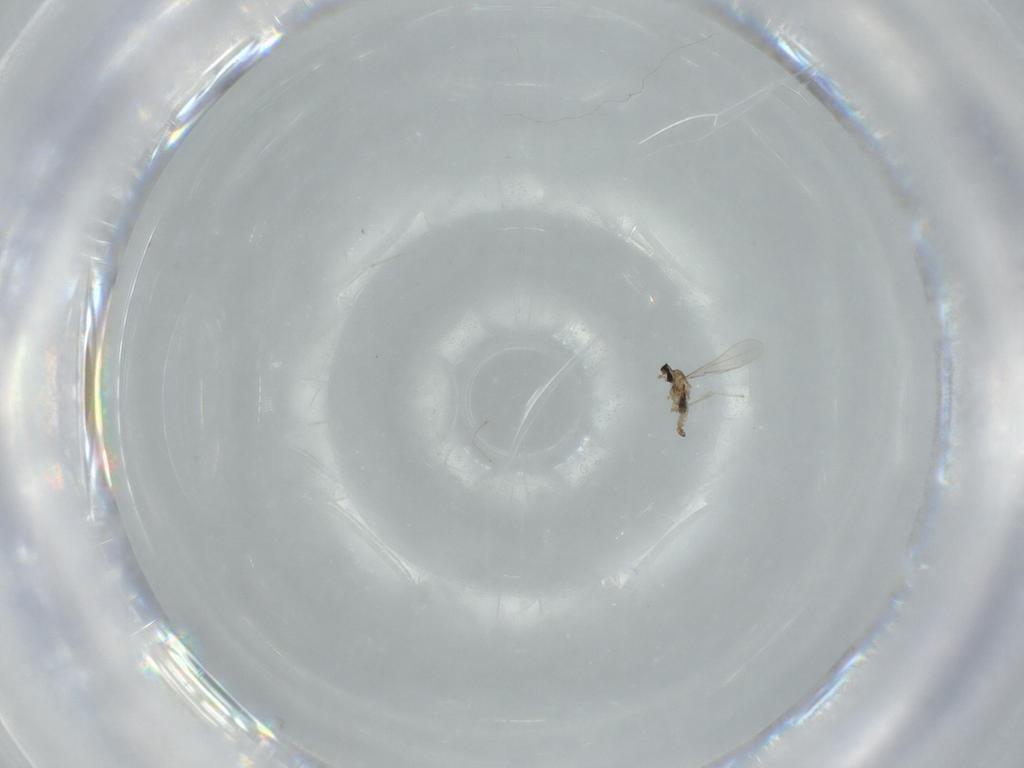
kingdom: Animalia
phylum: Arthropoda
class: Insecta
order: Diptera
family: Cecidomyiidae
